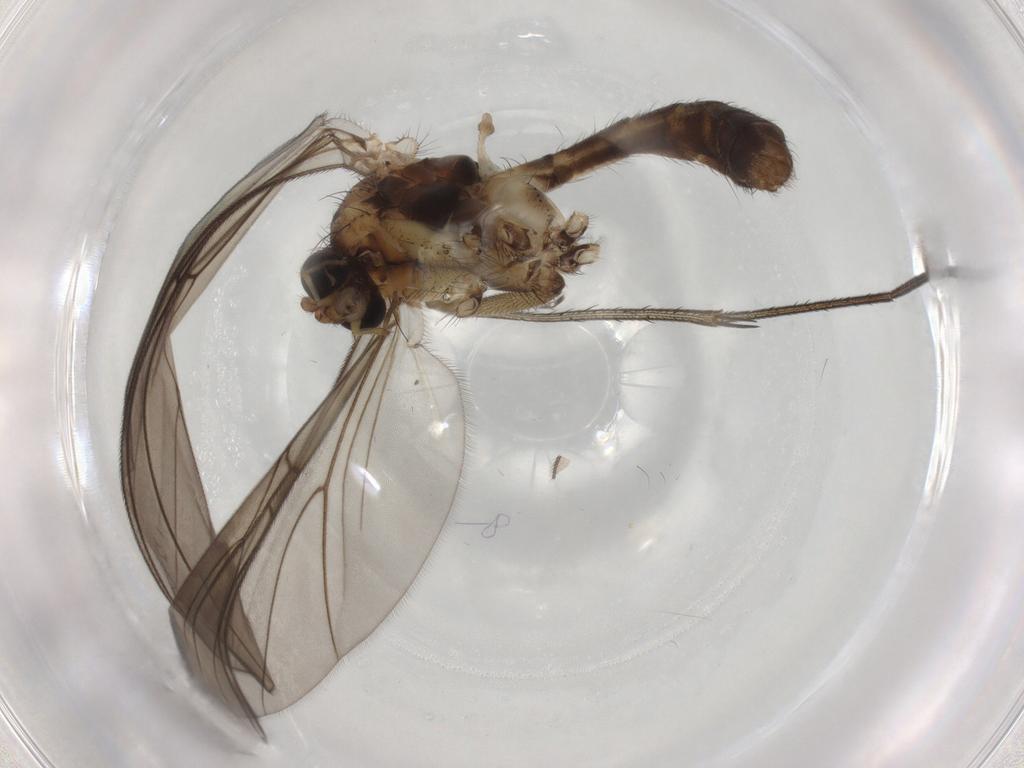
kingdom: Animalia
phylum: Arthropoda
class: Insecta
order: Diptera
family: Mycetophilidae
